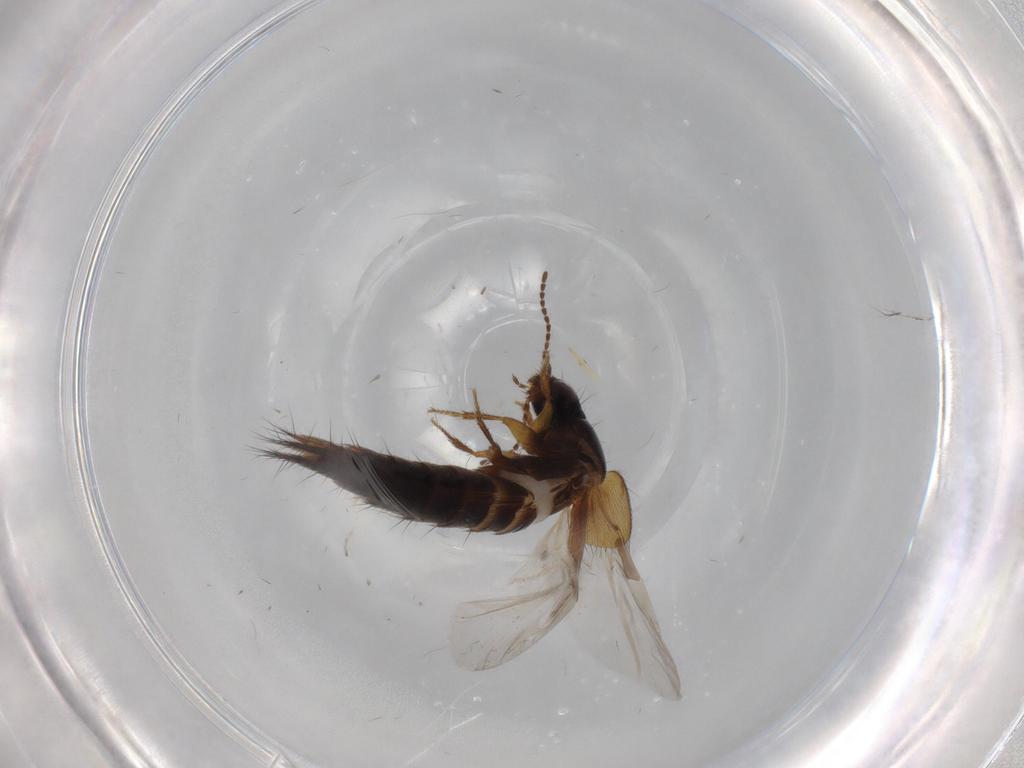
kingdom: Animalia
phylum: Arthropoda
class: Insecta
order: Coleoptera
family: Staphylinidae
